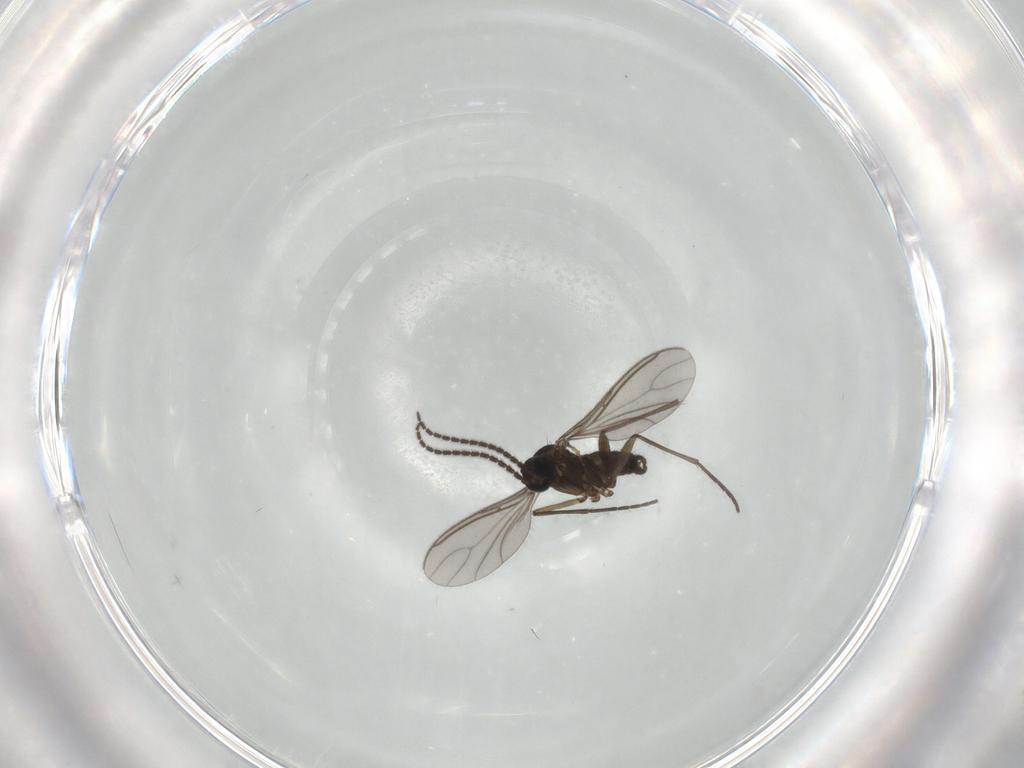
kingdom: Animalia
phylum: Arthropoda
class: Insecta
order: Diptera
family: Sciaridae
